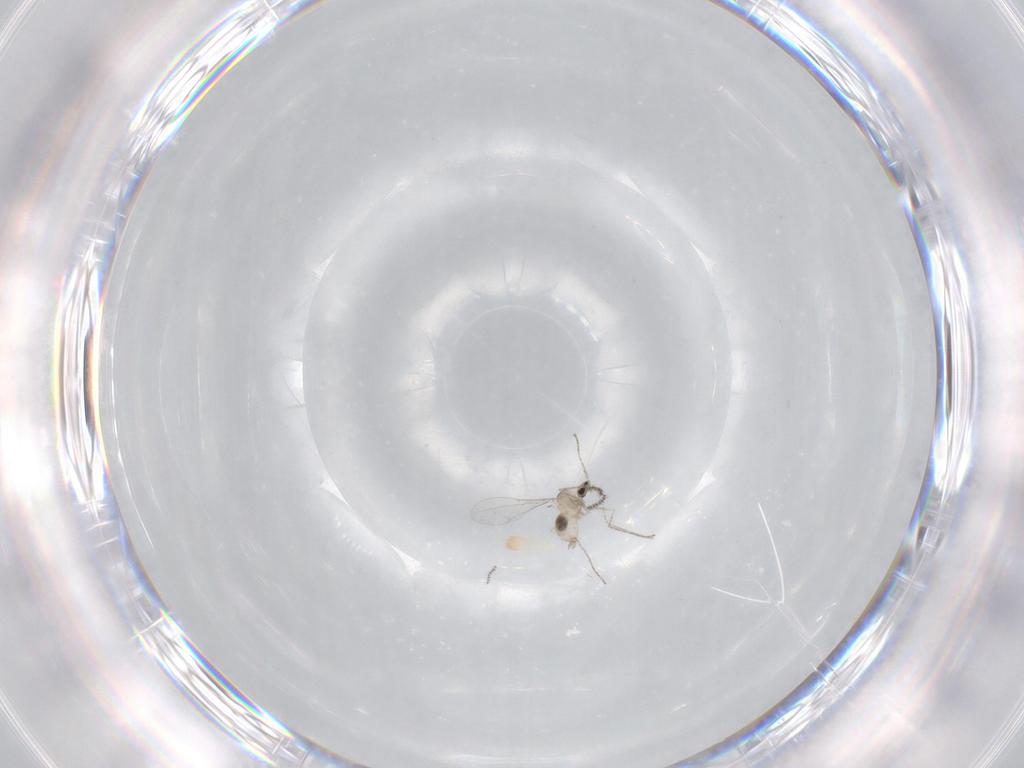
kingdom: Animalia
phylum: Arthropoda
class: Insecta
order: Diptera
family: Cecidomyiidae
